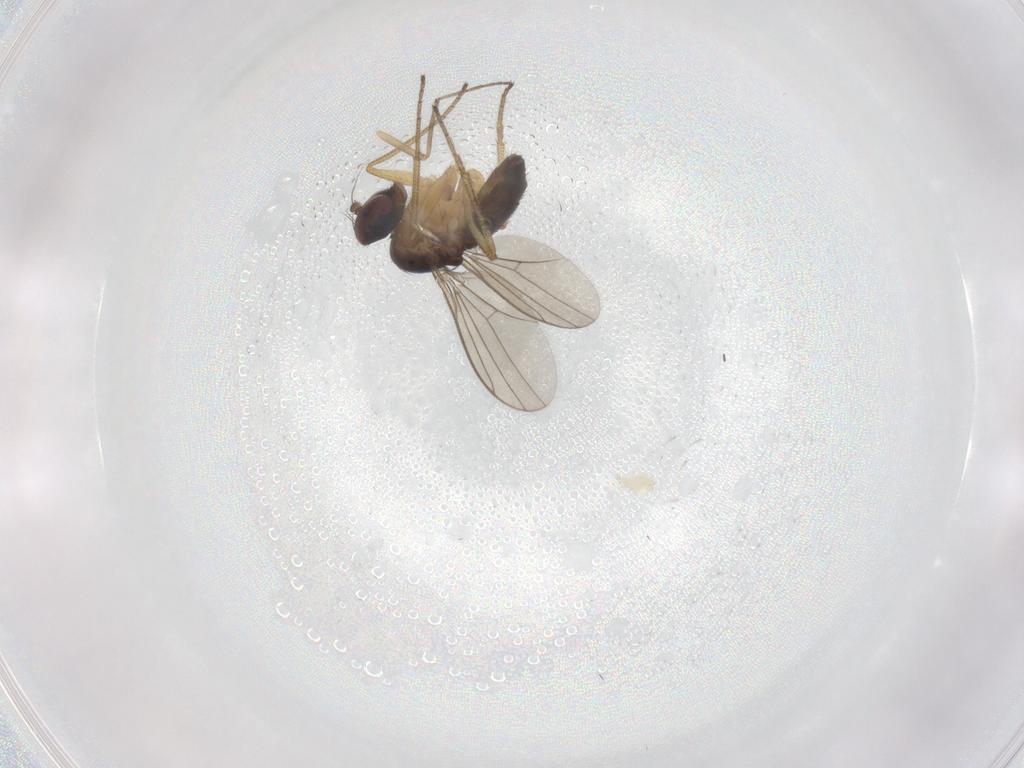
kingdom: Animalia
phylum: Arthropoda
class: Insecta
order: Diptera
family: Dolichopodidae
